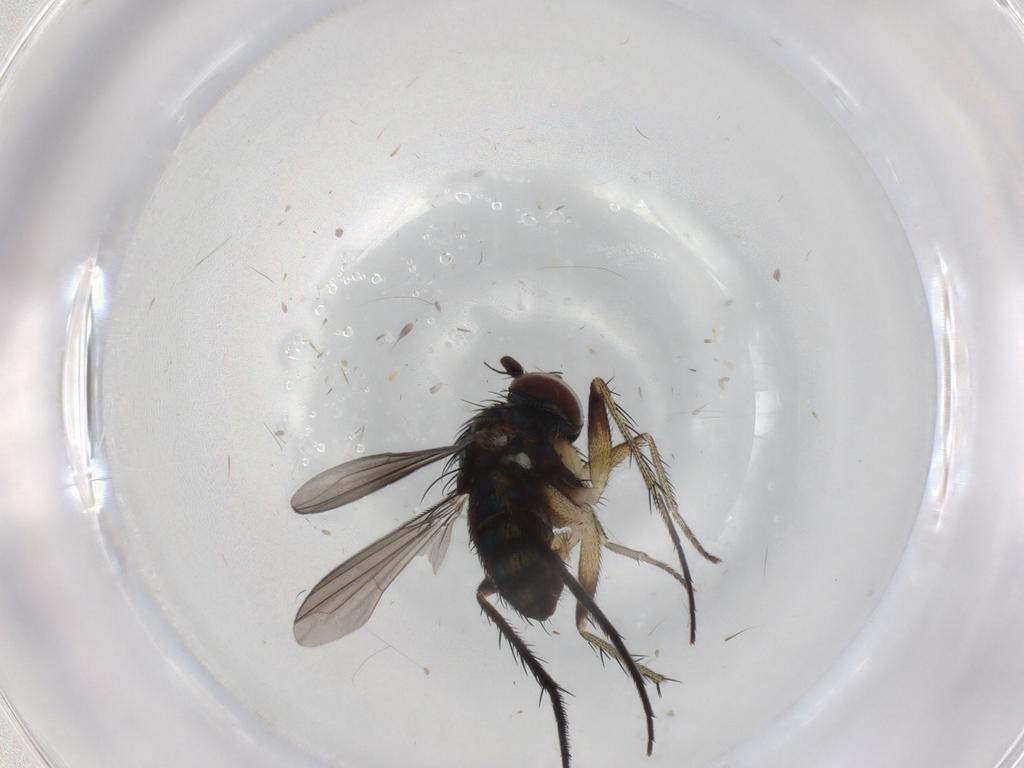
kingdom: Animalia
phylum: Arthropoda
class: Insecta
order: Diptera
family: Dolichopodidae
